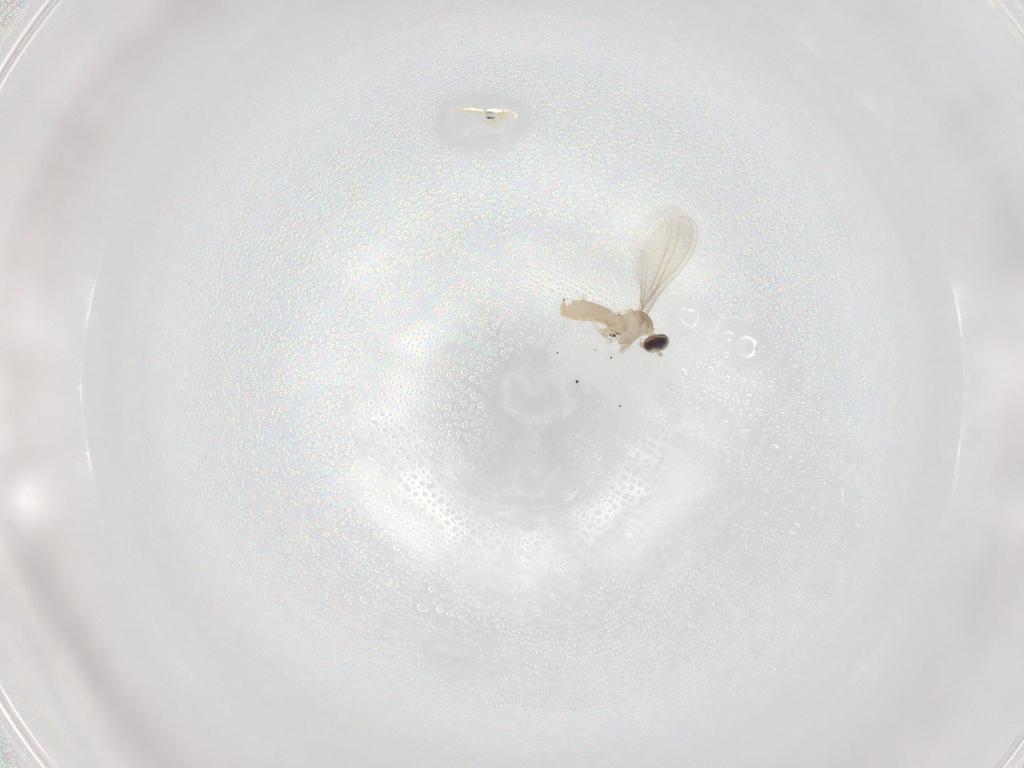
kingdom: Animalia
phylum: Arthropoda
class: Insecta
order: Diptera
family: Cecidomyiidae
